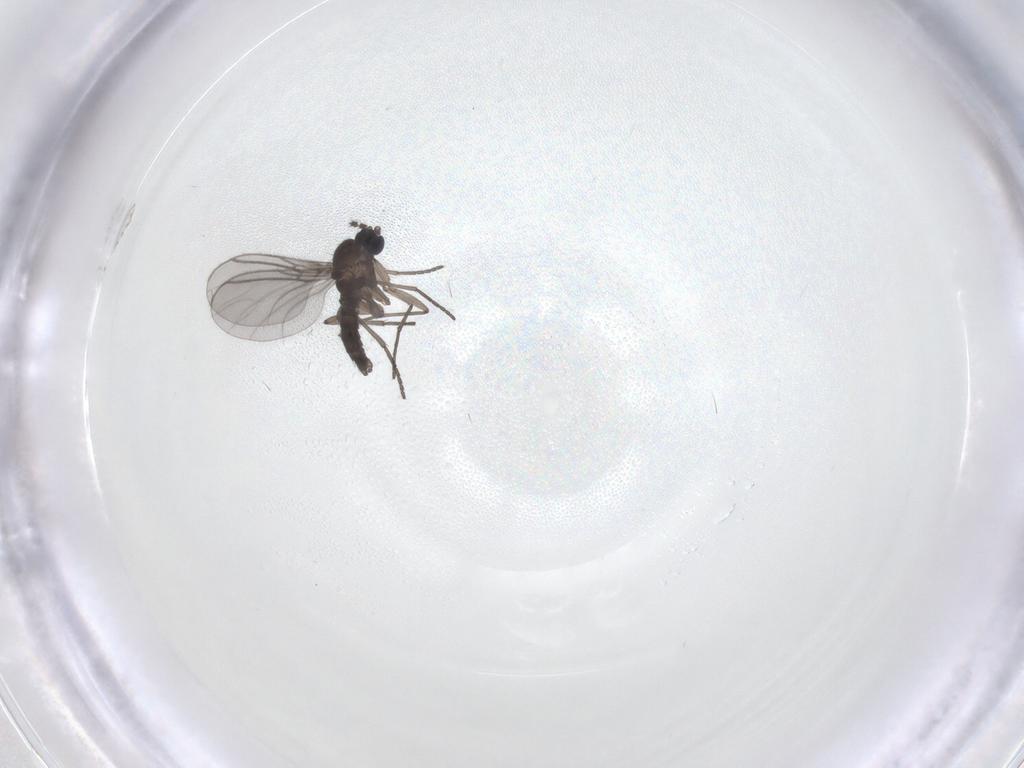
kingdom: Animalia
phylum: Arthropoda
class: Insecta
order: Diptera
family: Psychodidae
